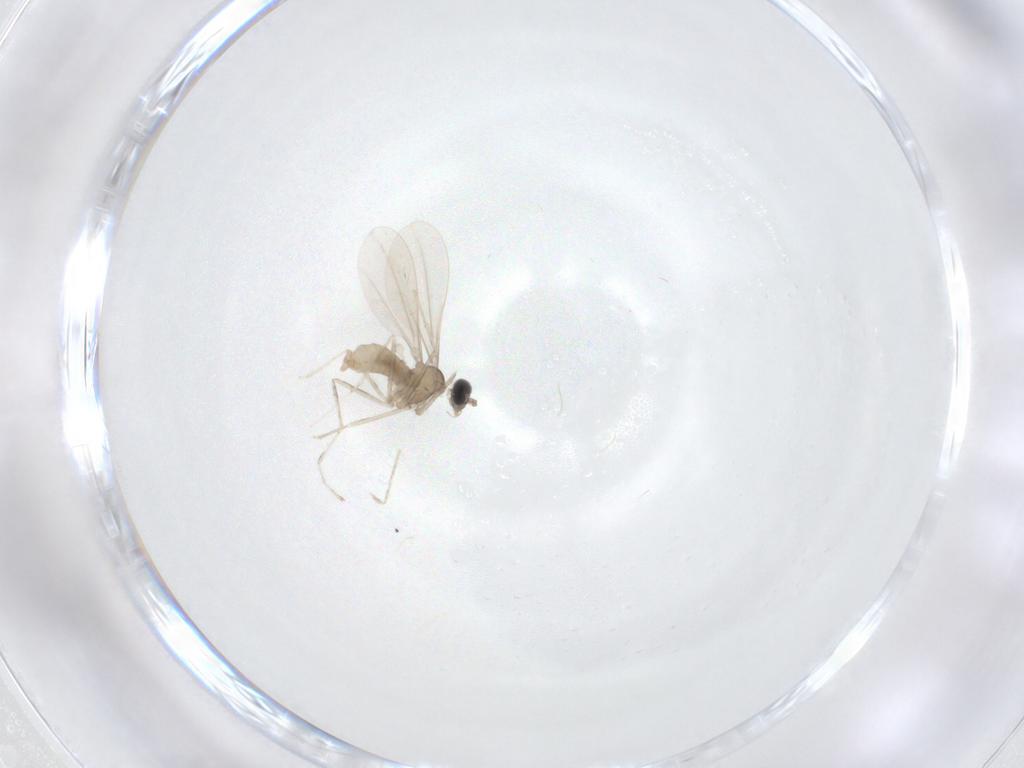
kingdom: Animalia
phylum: Arthropoda
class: Insecta
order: Diptera
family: Cecidomyiidae
